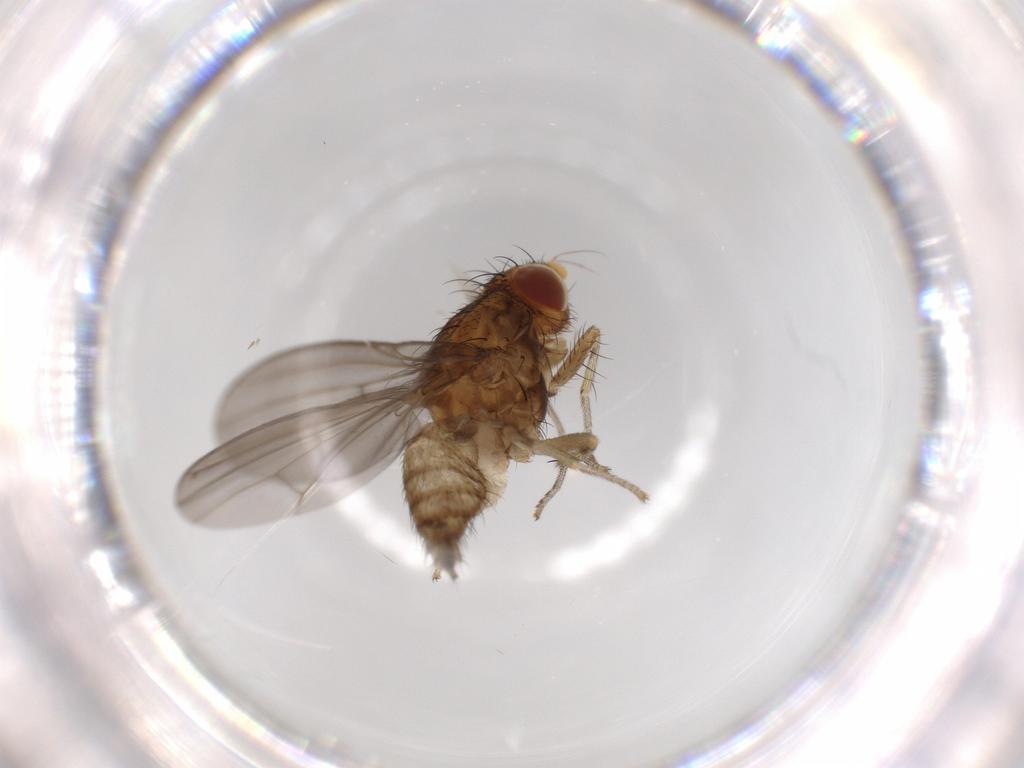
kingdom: Animalia
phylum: Arthropoda
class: Insecta
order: Diptera
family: Lauxaniidae
